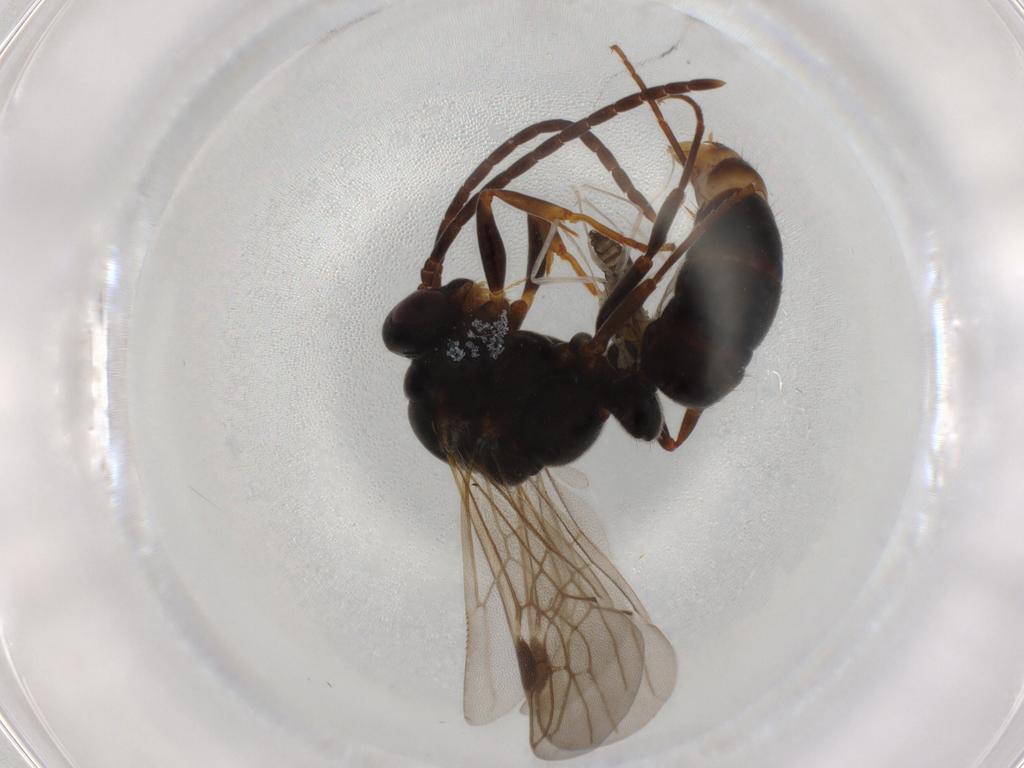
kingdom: Animalia
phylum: Arthropoda
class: Insecta
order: Hymenoptera
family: Formicidae
